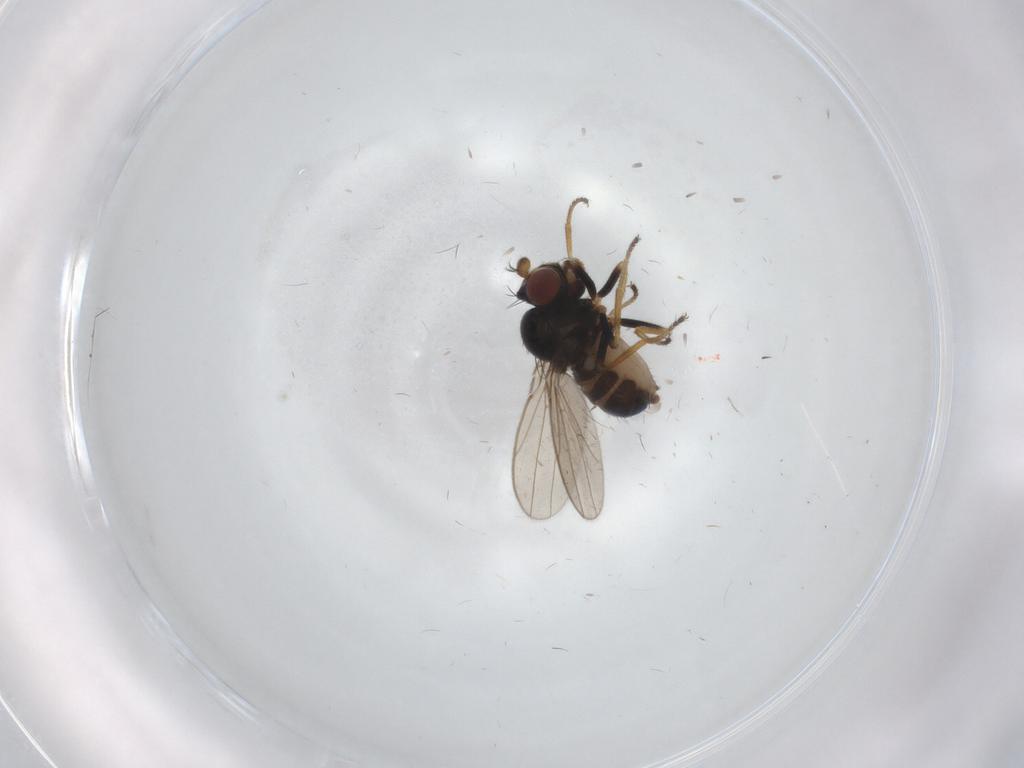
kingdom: Animalia
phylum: Arthropoda
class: Insecta
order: Diptera
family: Ephydridae
